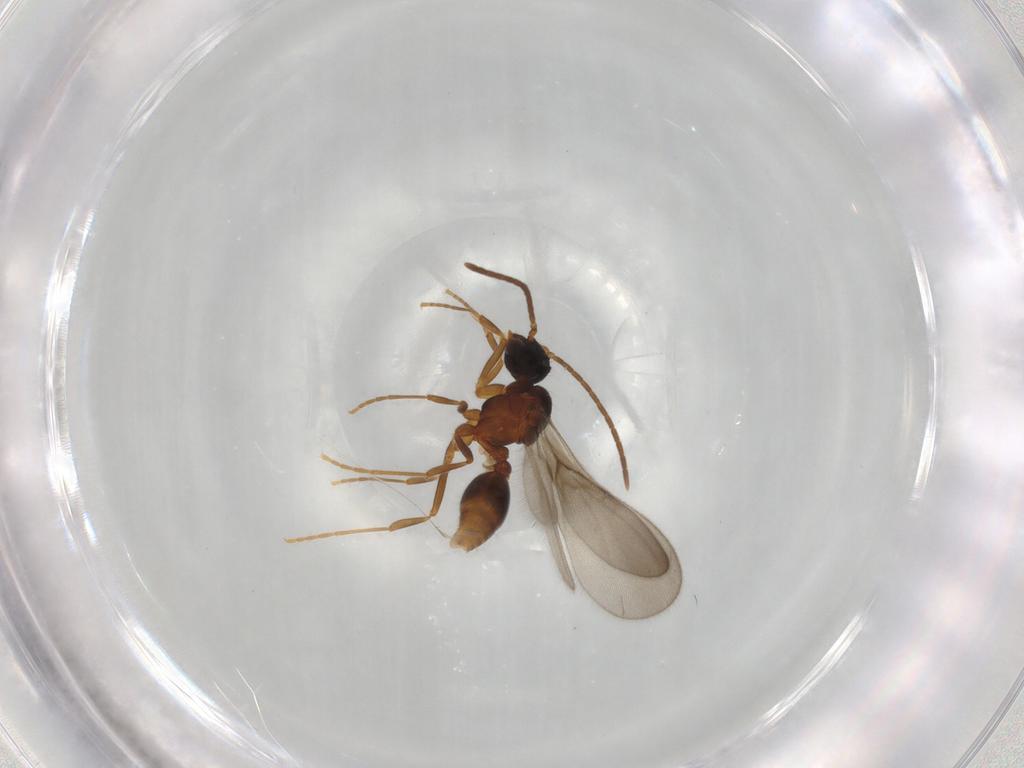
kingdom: Animalia
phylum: Arthropoda
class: Insecta
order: Hymenoptera
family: Formicidae
